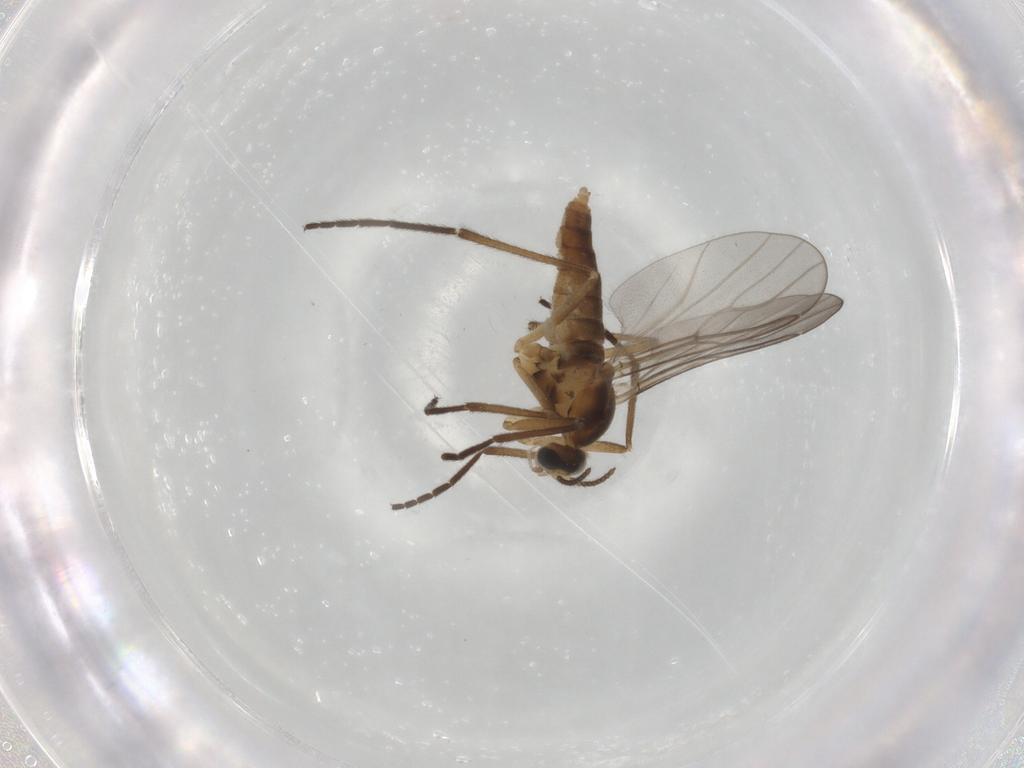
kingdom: Animalia
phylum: Arthropoda
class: Insecta
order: Diptera
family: Cecidomyiidae
